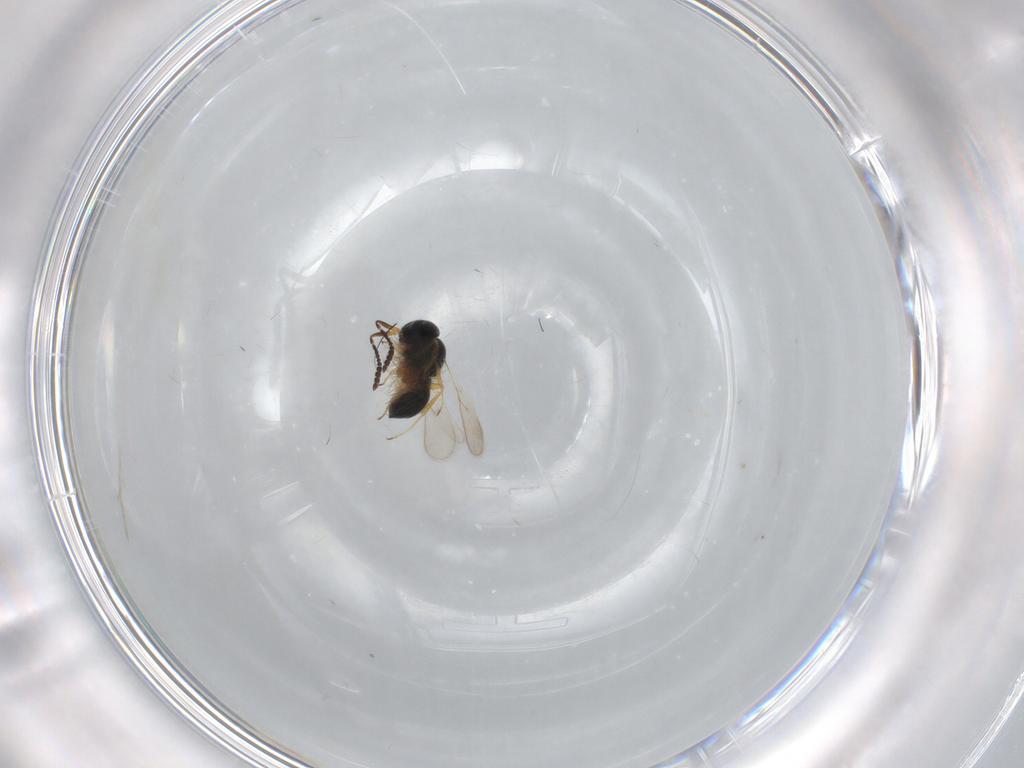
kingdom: Animalia
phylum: Arthropoda
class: Insecta
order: Hymenoptera
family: Scelionidae
